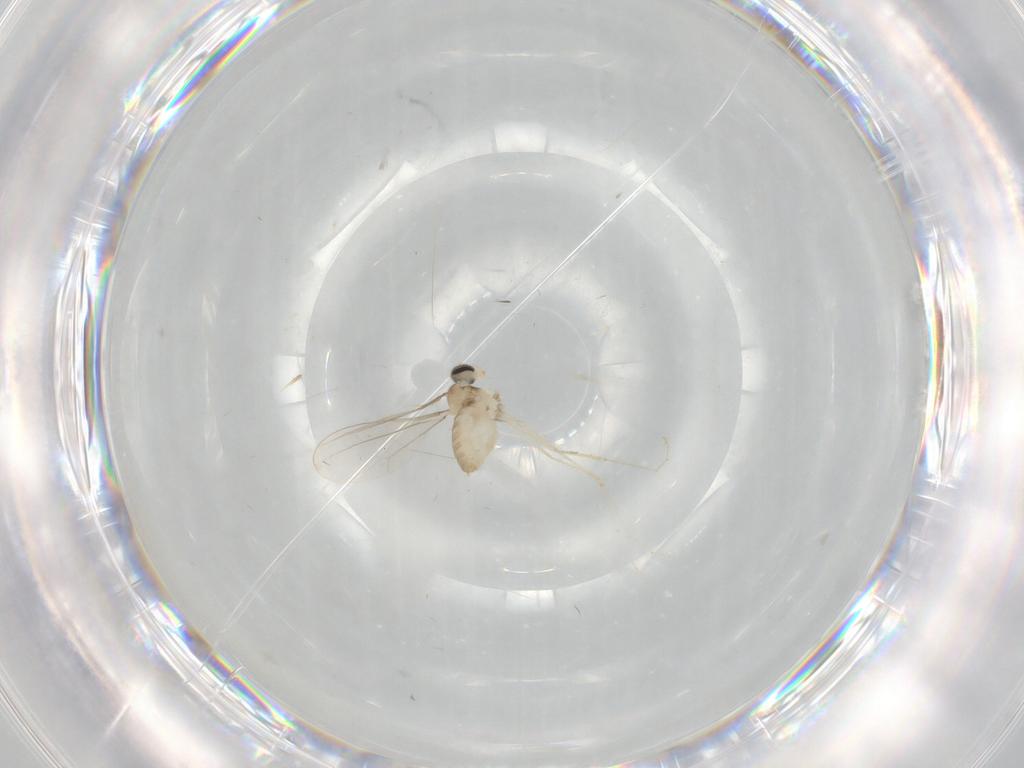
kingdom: Animalia
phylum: Arthropoda
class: Insecta
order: Diptera
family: Cecidomyiidae
